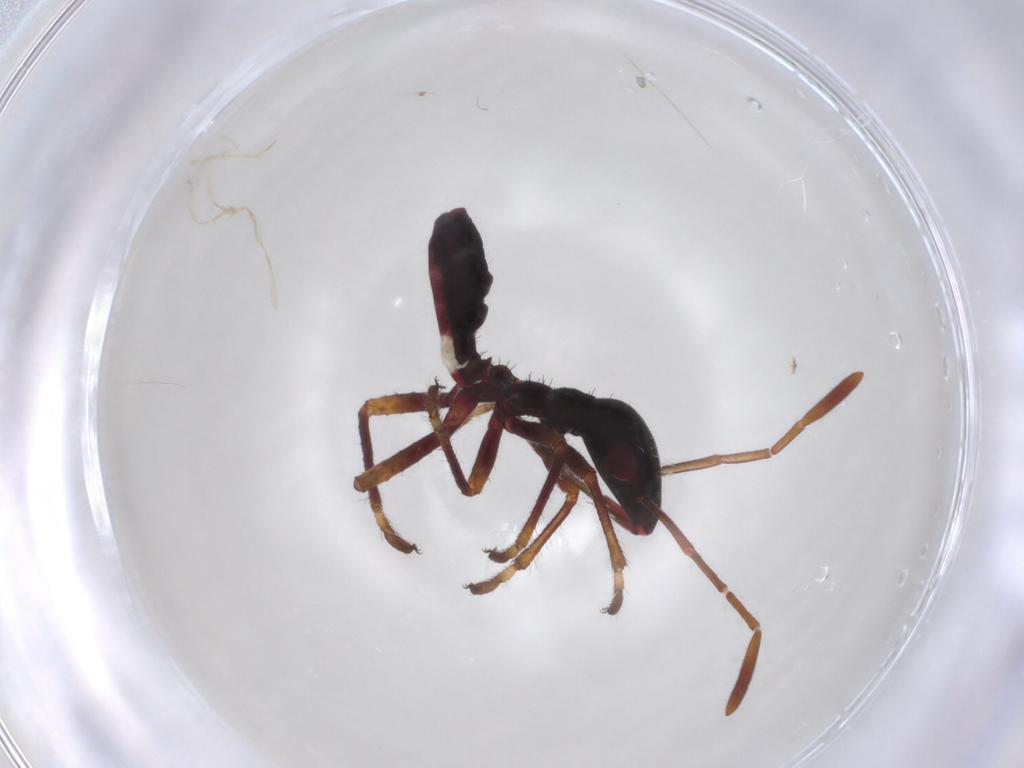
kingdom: Animalia
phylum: Arthropoda
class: Insecta
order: Hemiptera
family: Alydidae
